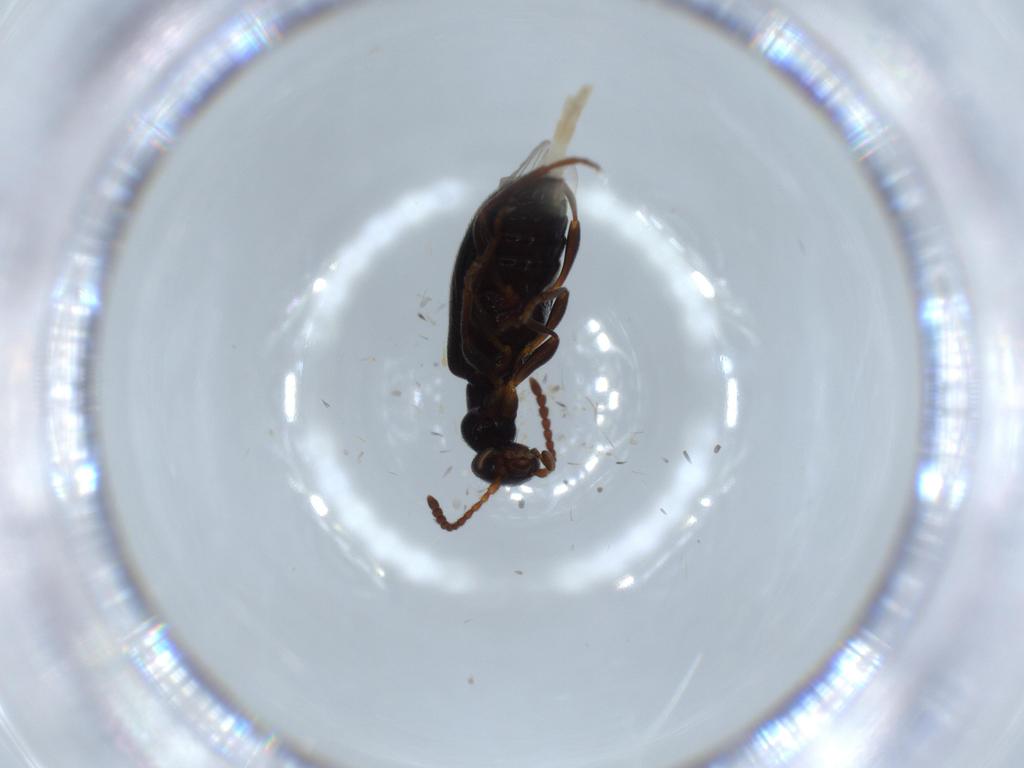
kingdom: Animalia
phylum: Arthropoda
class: Insecta
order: Coleoptera
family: Anthicidae
